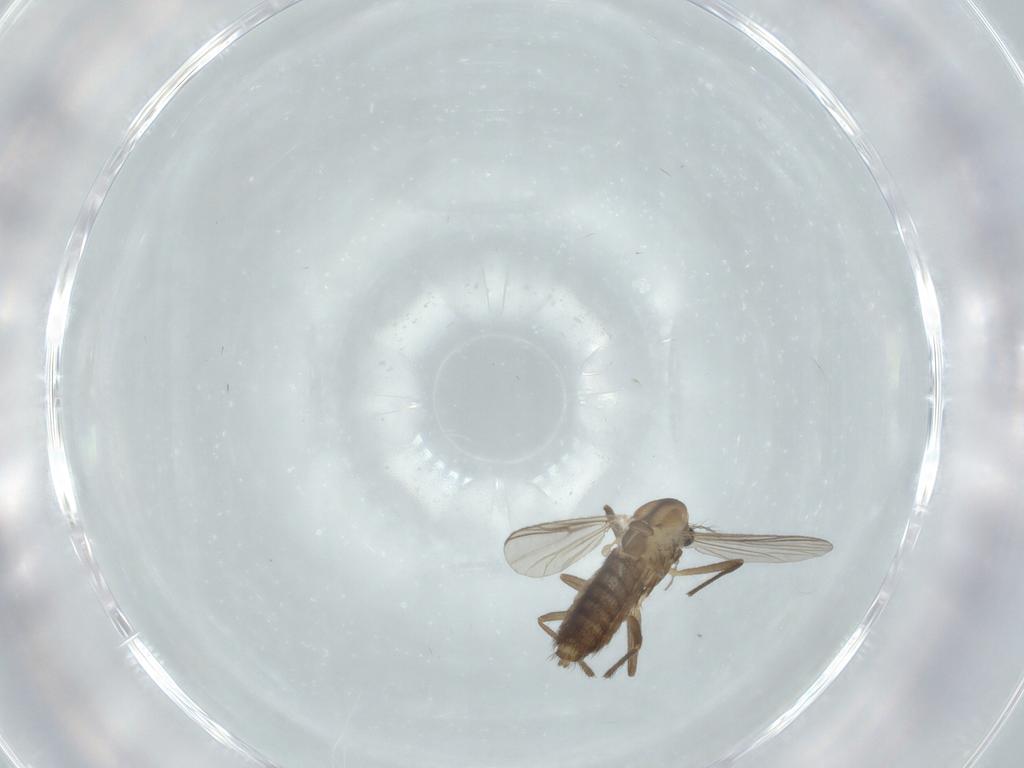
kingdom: Animalia
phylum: Arthropoda
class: Insecta
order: Diptera
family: Chironomidae
